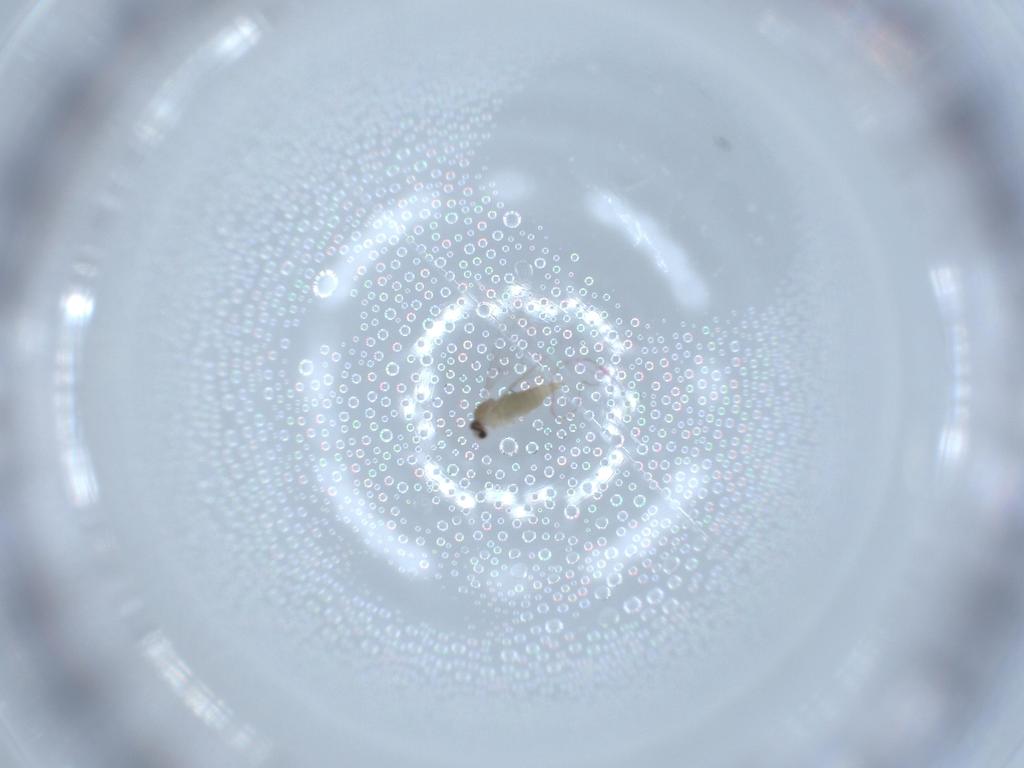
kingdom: Animalia
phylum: Arthropoda
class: Insecta
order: Diptera
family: Cecidomyiidae
